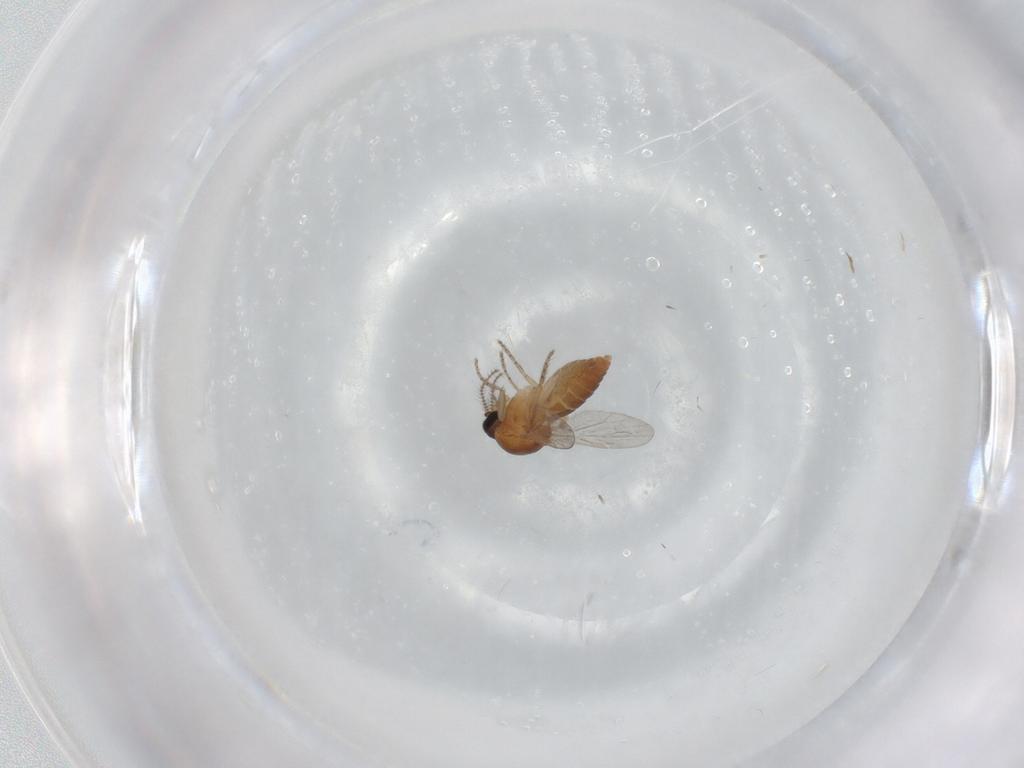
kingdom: Animalia
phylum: Arthropoda
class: Insecta
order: Diptera
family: Ceratopogonidae
